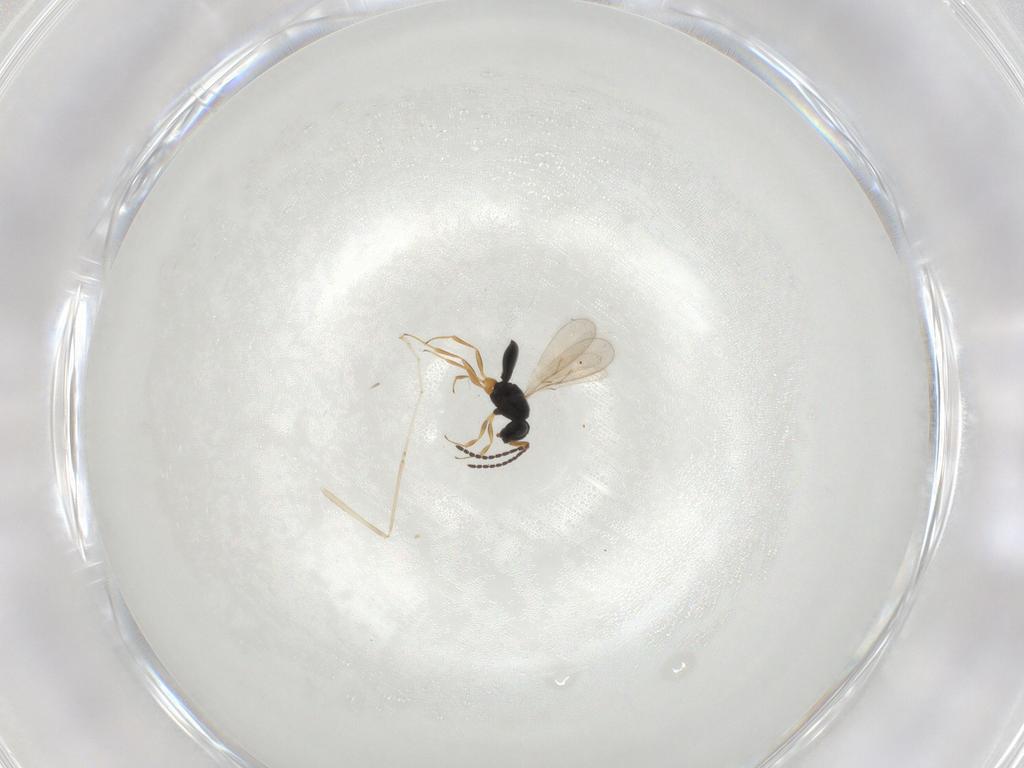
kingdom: Animalia
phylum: Arthropoda
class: Insecta
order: Hymenoptera
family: Scelionidae
